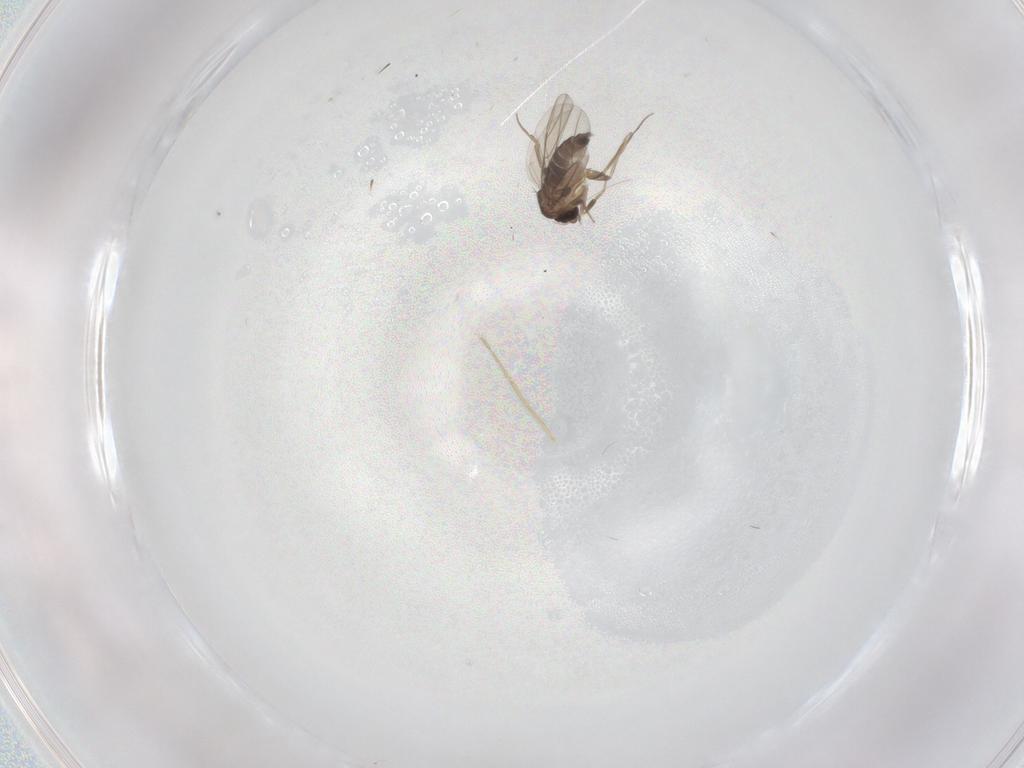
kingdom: Animalia
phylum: Arthropoda
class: Insecta
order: Diptera
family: Phoridae
